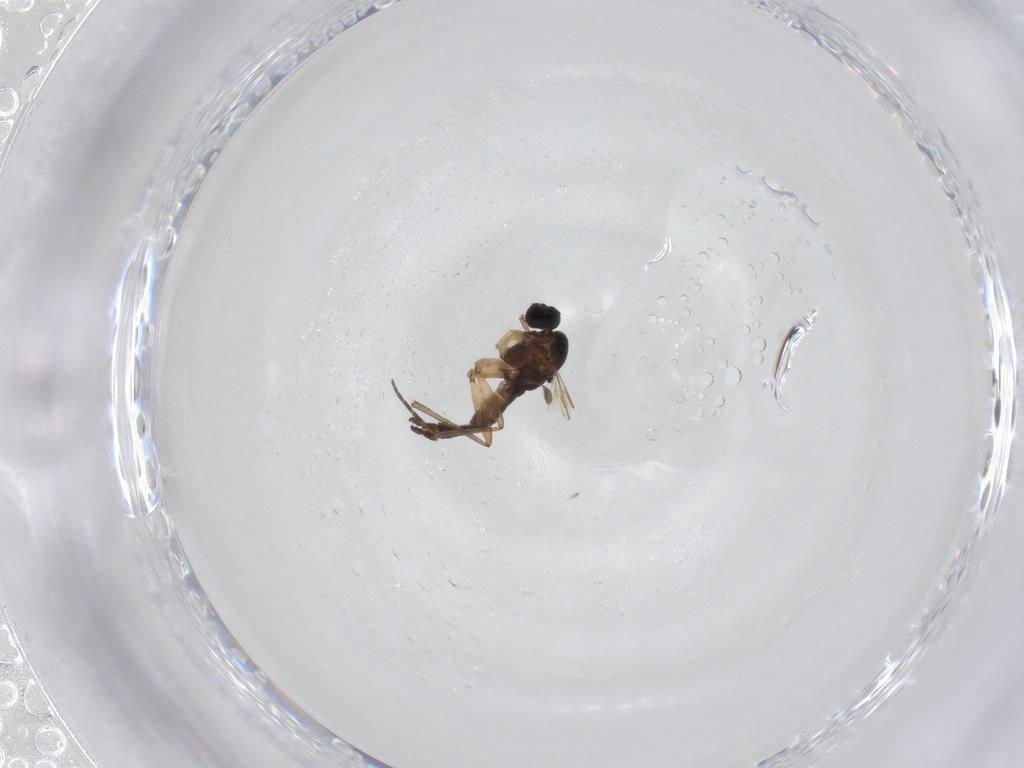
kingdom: Animalia
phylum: Arthropoda
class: Insecta
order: Diptera
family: Sciaridae
